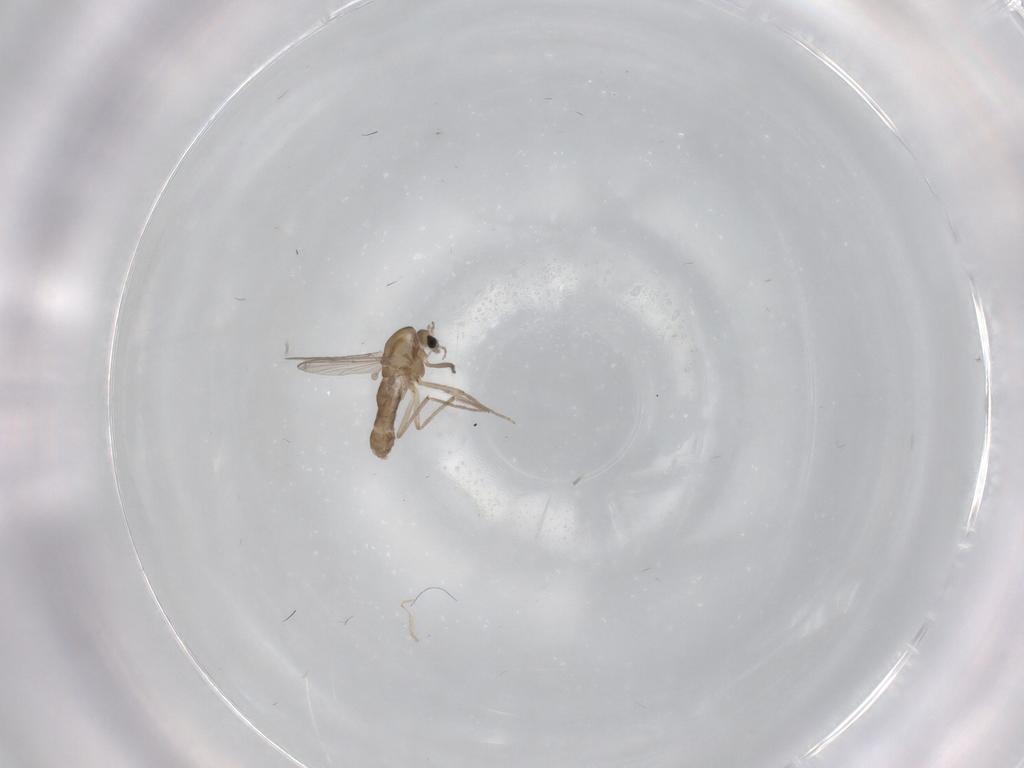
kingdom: Animalia
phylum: Arthropoda
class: Insecta
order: Diptera
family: Chironomidae
